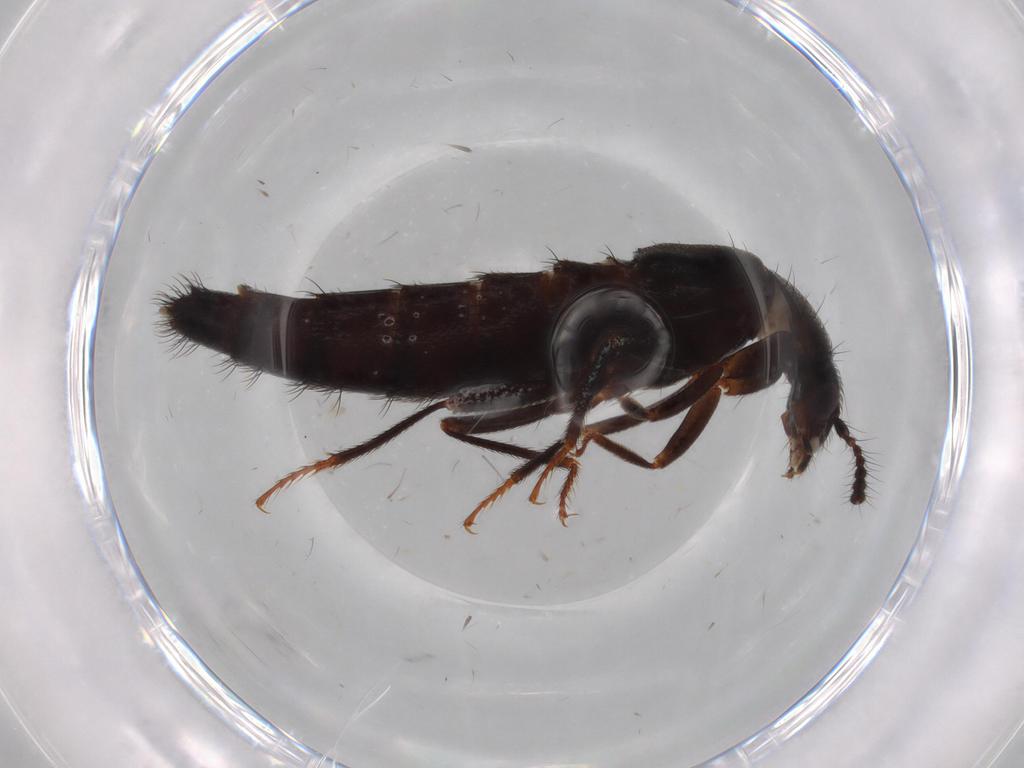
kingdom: Animalia
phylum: Arthropoda
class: Insecta
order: Coleoptera
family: Staphylinidae
